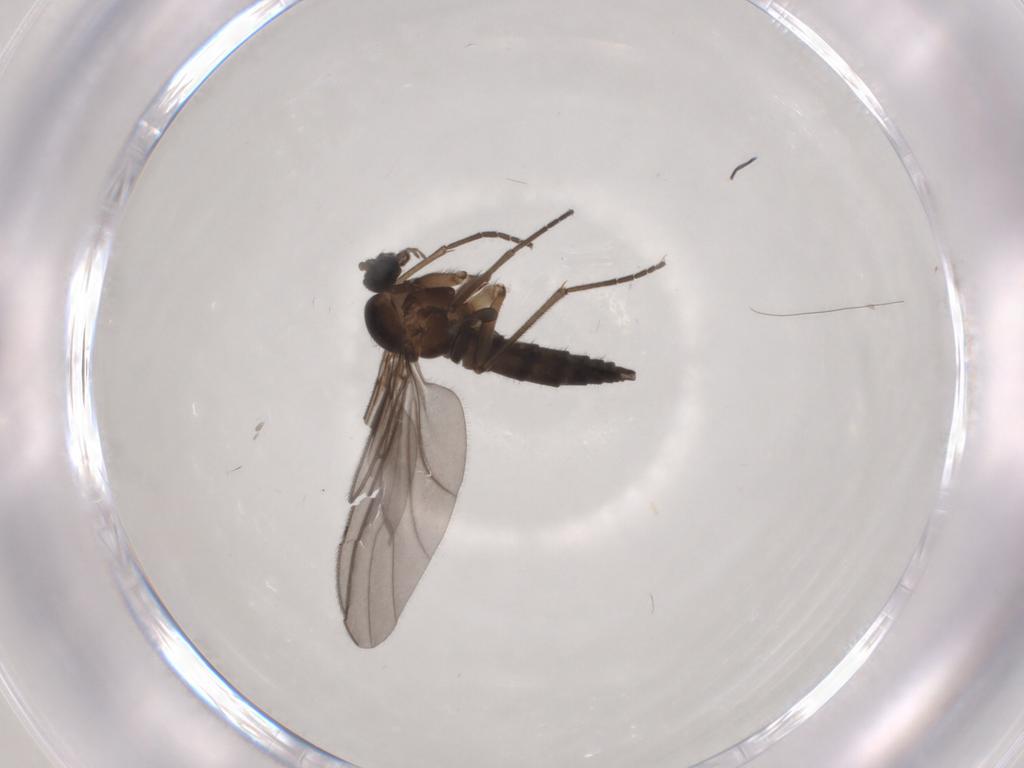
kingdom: Animalia
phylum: Arthropoda
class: Insecta
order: Diptera
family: Sciaridae
